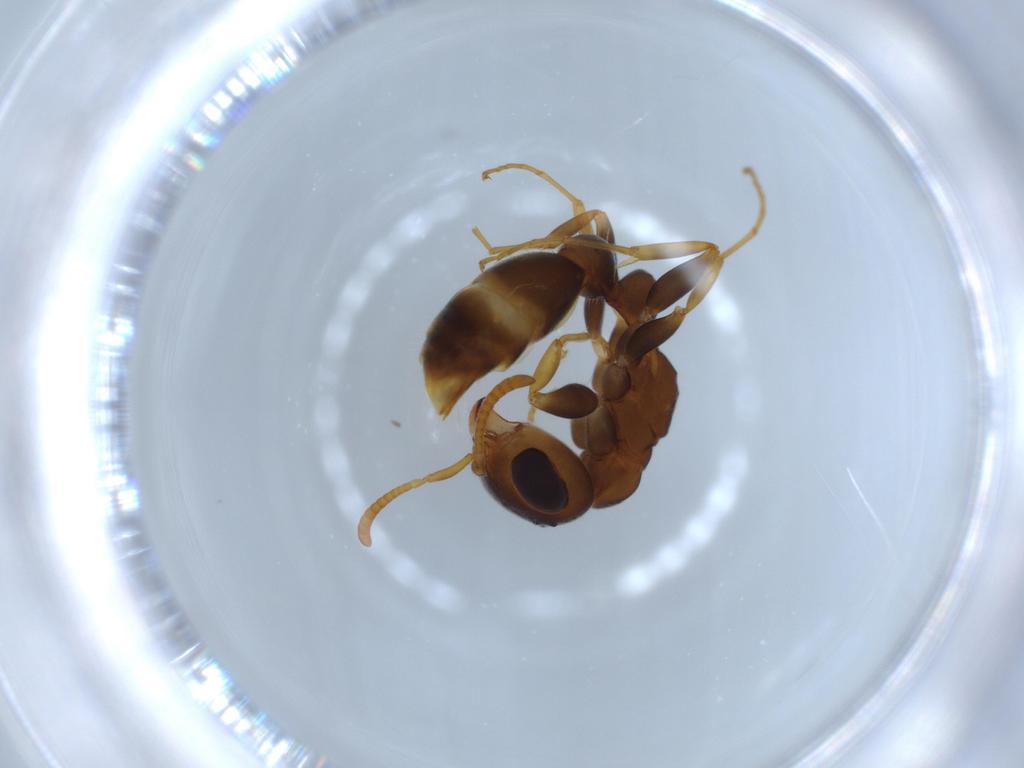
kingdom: Animalia
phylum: Arthropoda
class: Insecta
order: Hymenoptera
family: Formicidae
